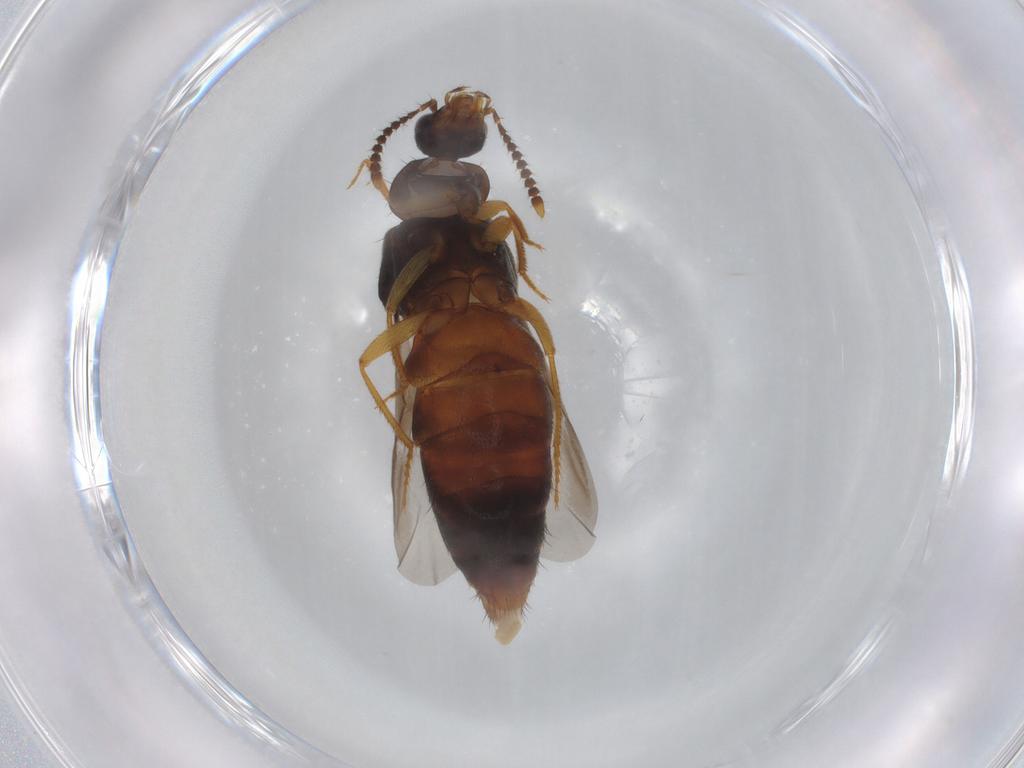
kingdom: Animalia
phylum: Arthropoda
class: Insecta
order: Coleoptera
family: Staphylinidae
